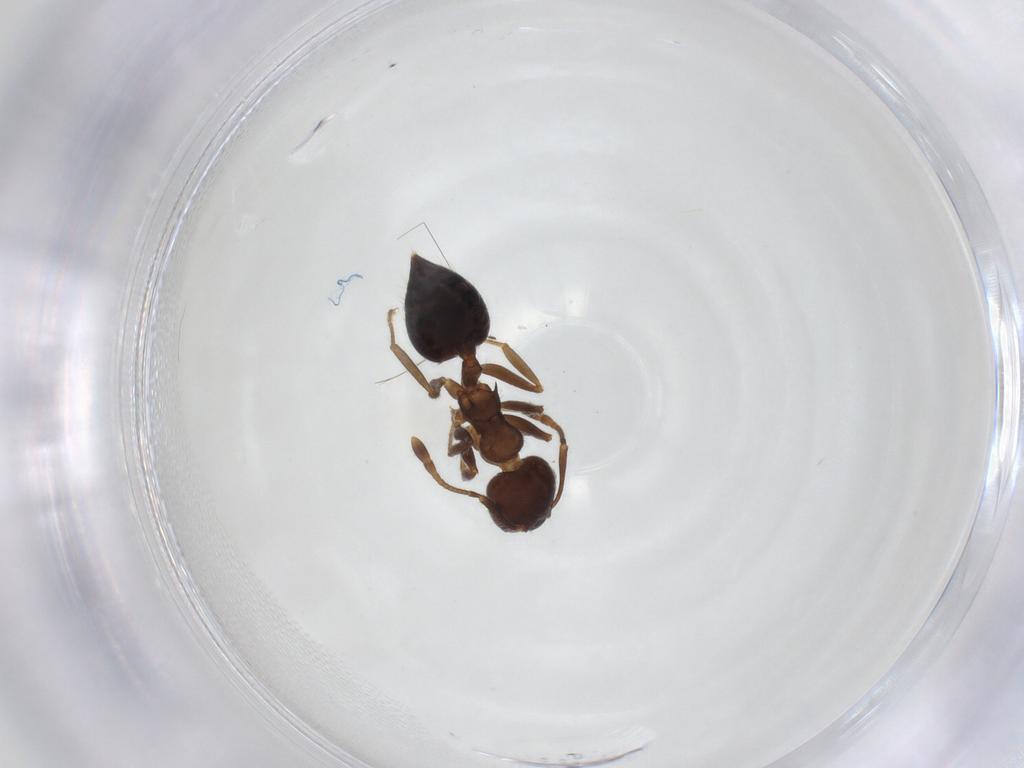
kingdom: Animalia
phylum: Arthropoda
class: Insecta
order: Hymenoptera
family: Formicidae
